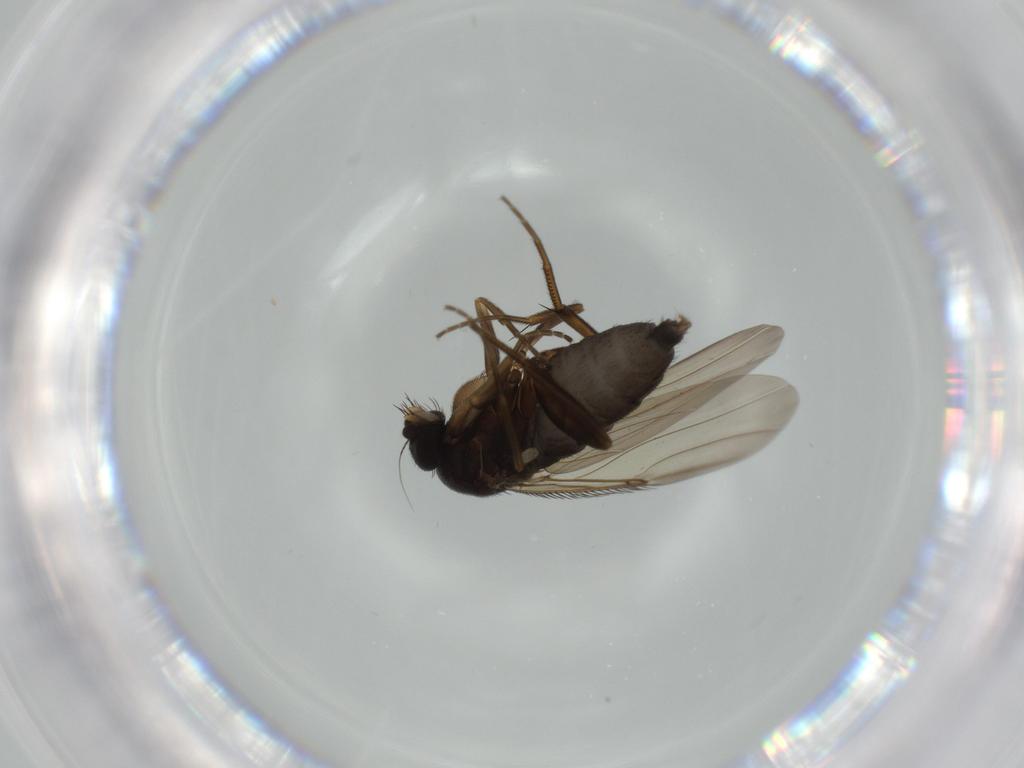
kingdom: Animalia
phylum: Arthropoda
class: Insecta
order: Diptera
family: Phoridae
